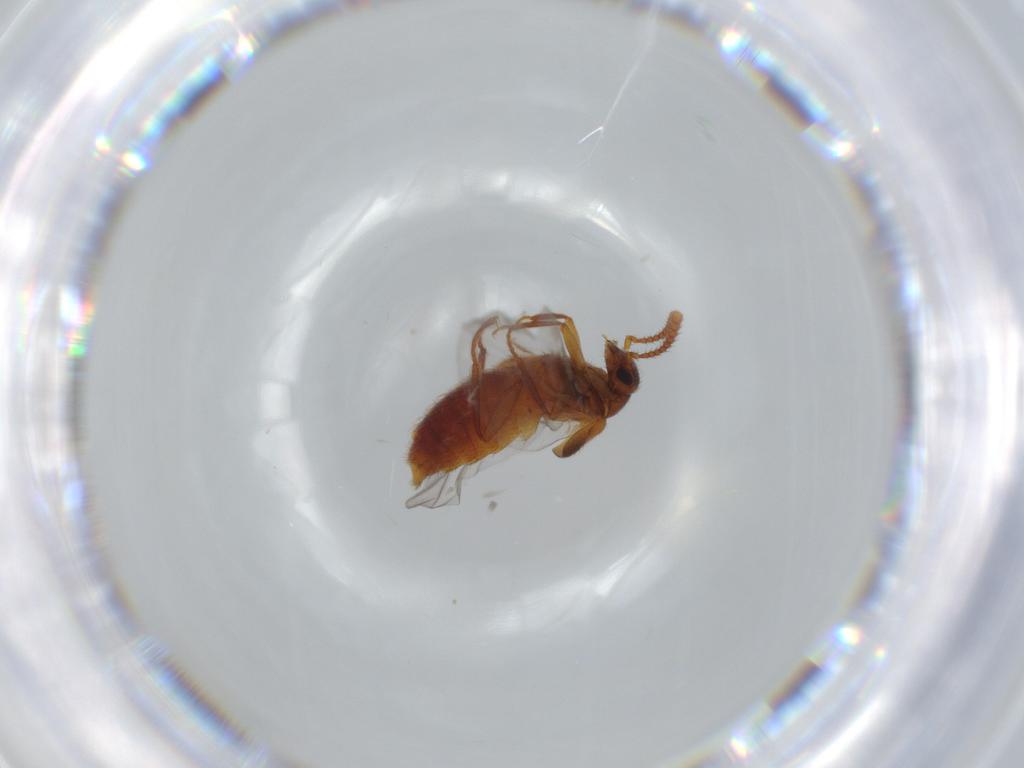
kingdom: Animalia
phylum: Arthropoda
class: Insecta
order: Coleoptera
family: Staphylinidae
